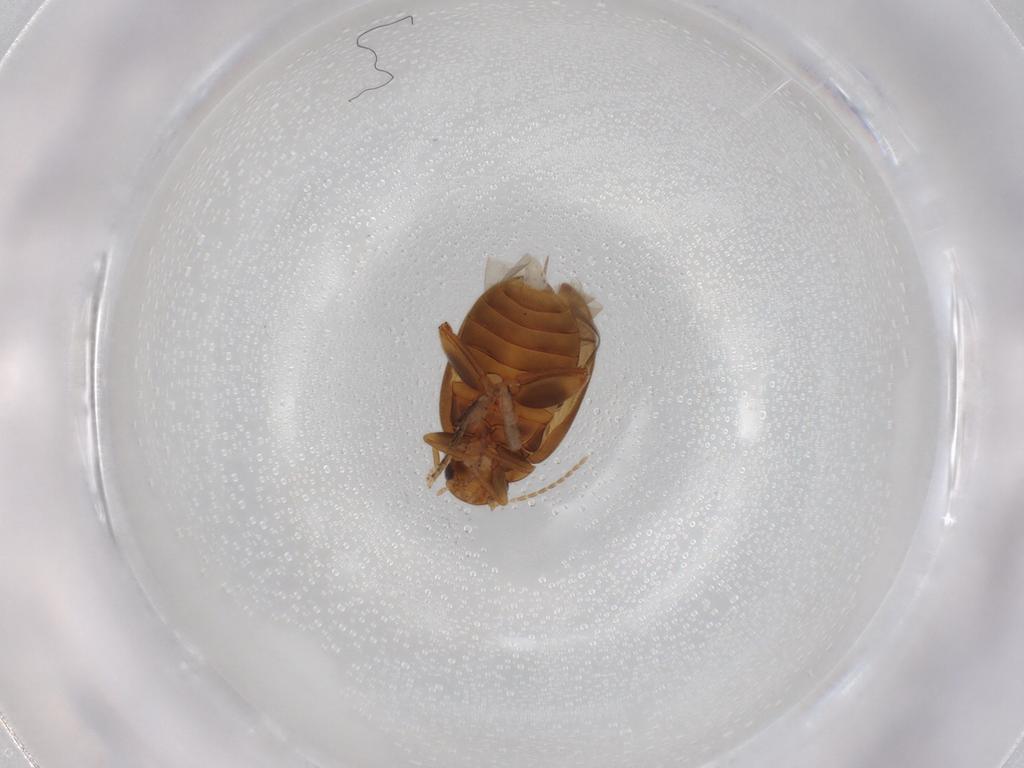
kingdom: Animalia
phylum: Arthropoda
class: Insecta
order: Coleoptera
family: Scirtidae
